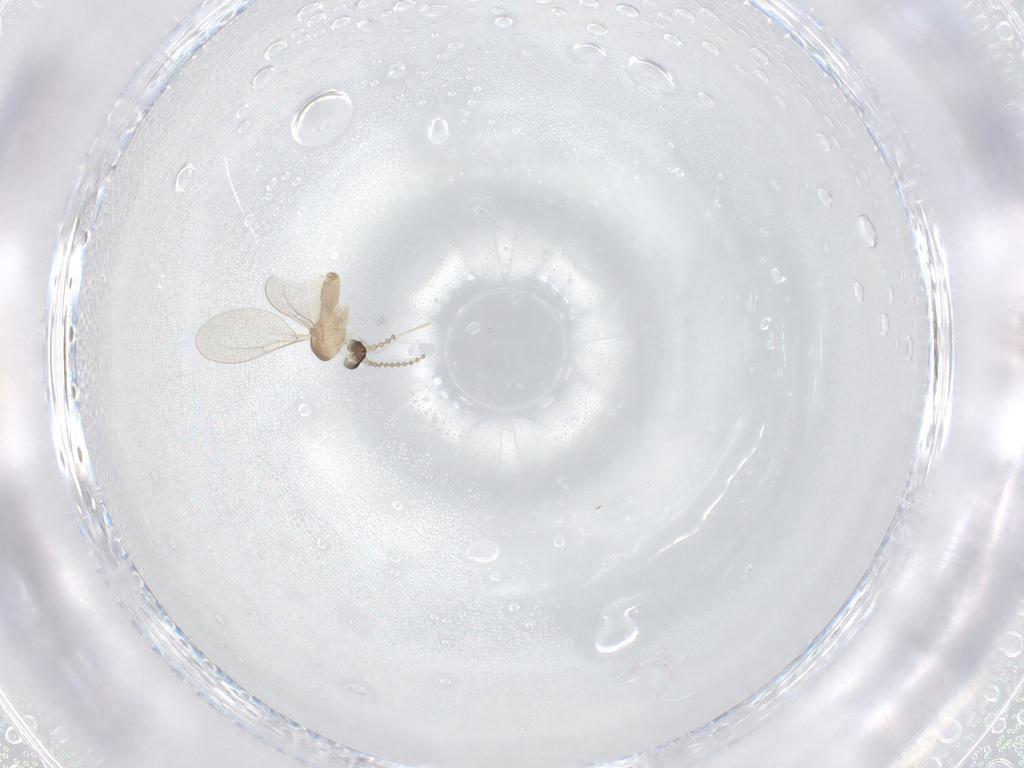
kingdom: Animalia
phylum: Arthropoda
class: Insecta
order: Diptera
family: Cecidomyiidae
